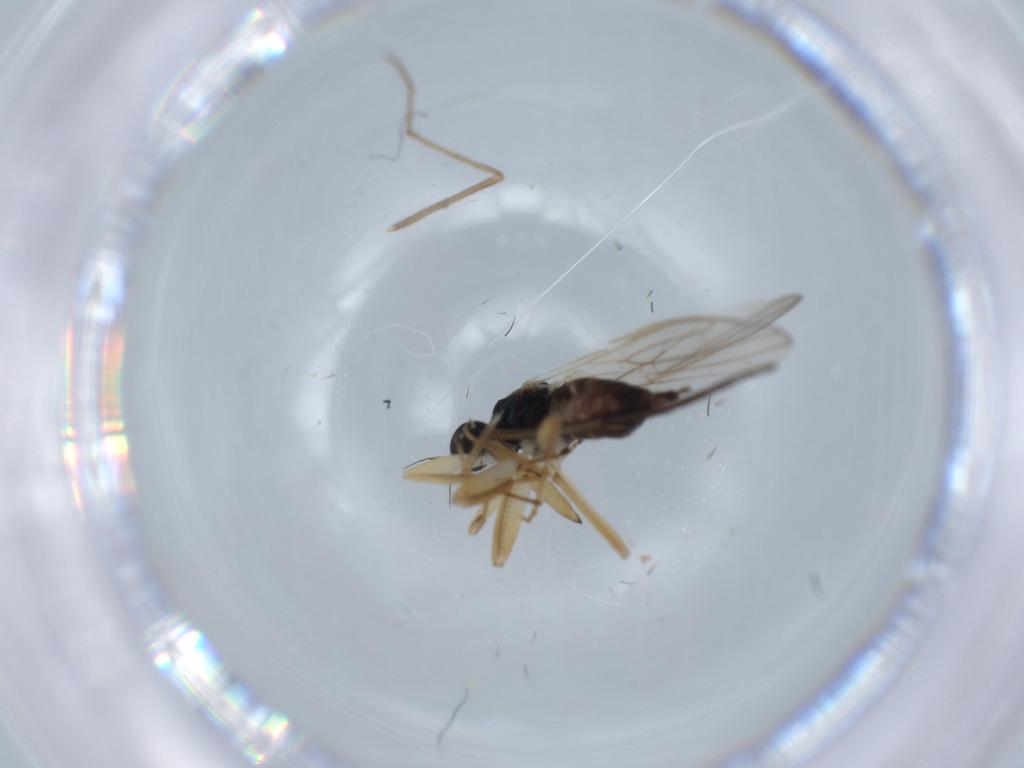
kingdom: Animalia
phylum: Arthropoda
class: Insecta
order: Diptera
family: Hybotidae
